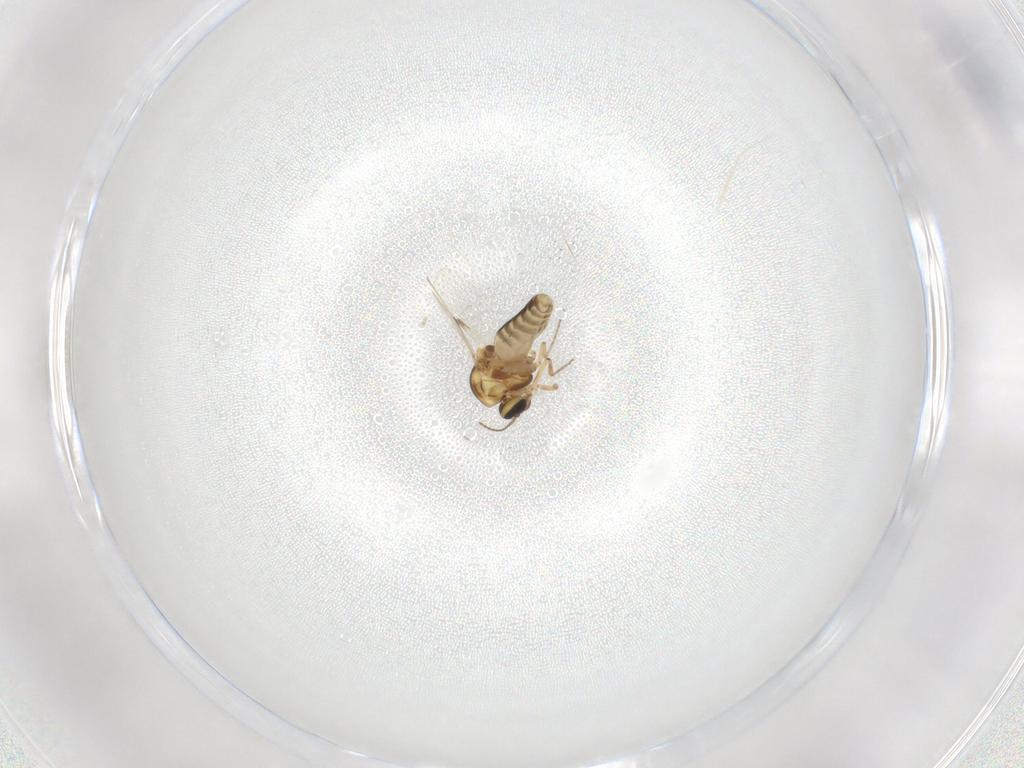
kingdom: Animalia
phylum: Arthropoda
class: Insecta
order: Diptera
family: Ceratopogonidae
